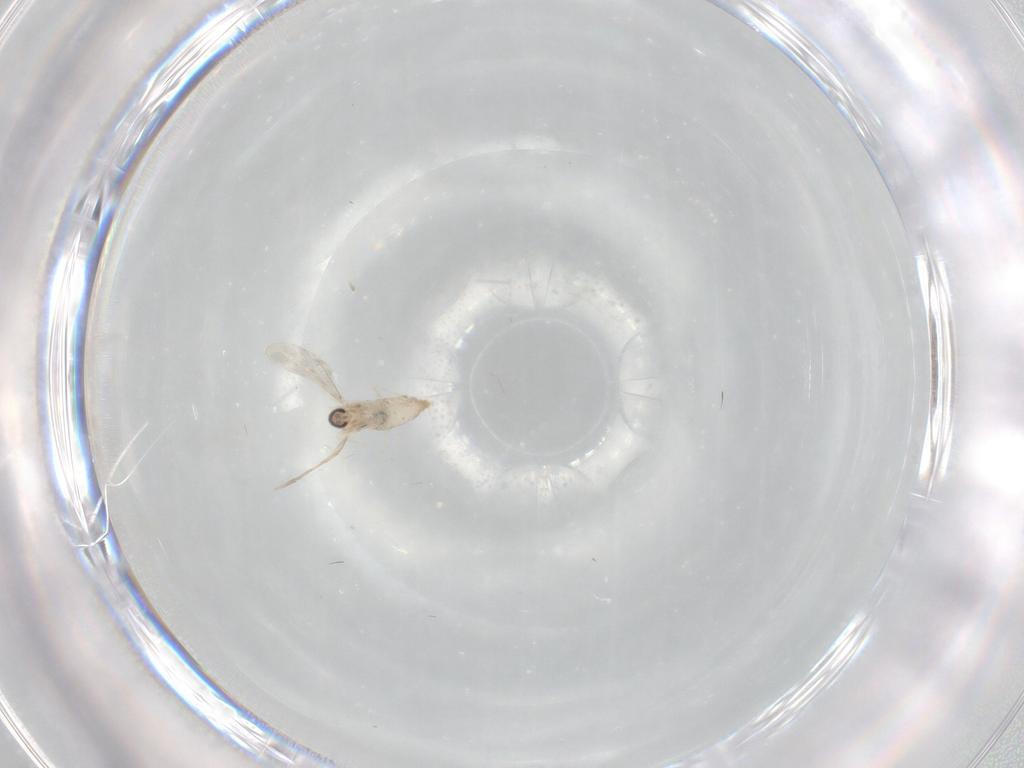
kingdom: Animalia
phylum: Arthropoda
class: Insecta
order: Diptera
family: Cecidomyiidae
